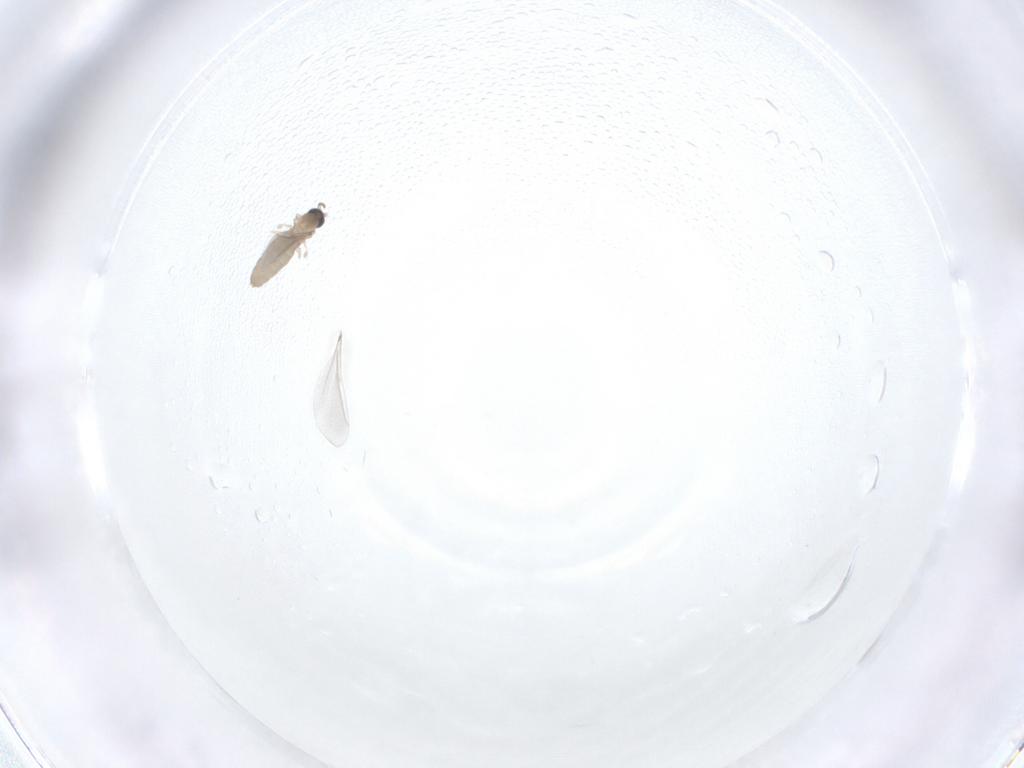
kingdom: Animalia
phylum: Arthropoda
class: Insecta
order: Diptera
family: Cecidomyiidae
